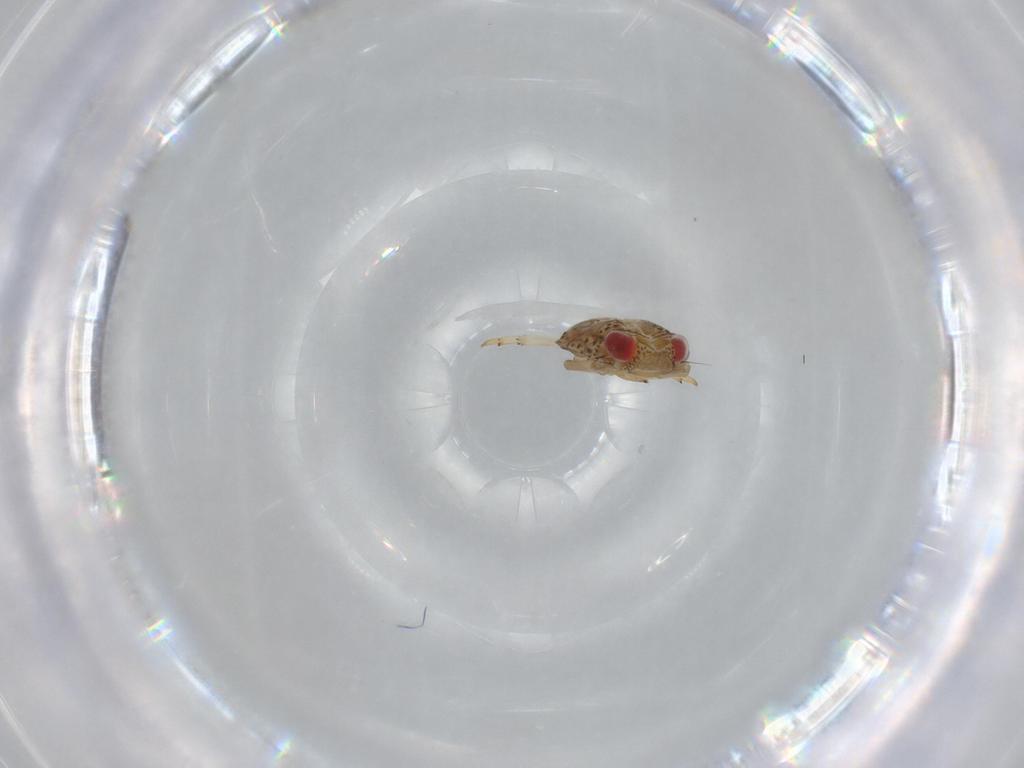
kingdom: Animalia
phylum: Arthropoda
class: Insecta
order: Hemiptera
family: Issidae
